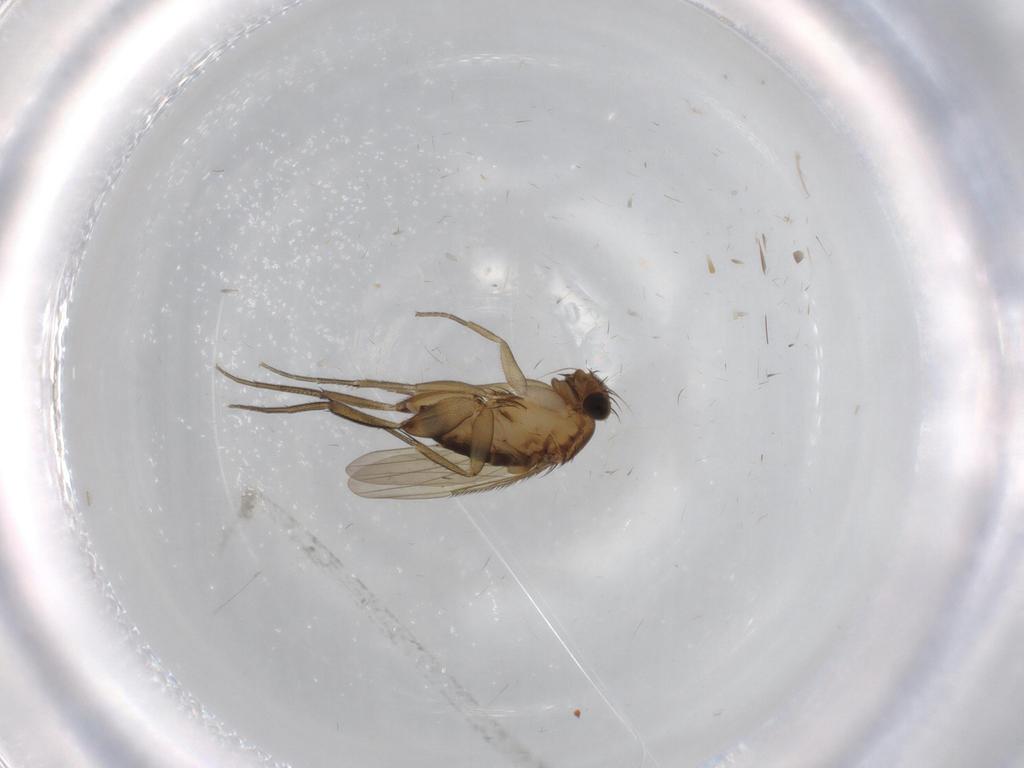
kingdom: Animalia
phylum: Arthropoda
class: Insecta
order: Diptera
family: Phoridae
